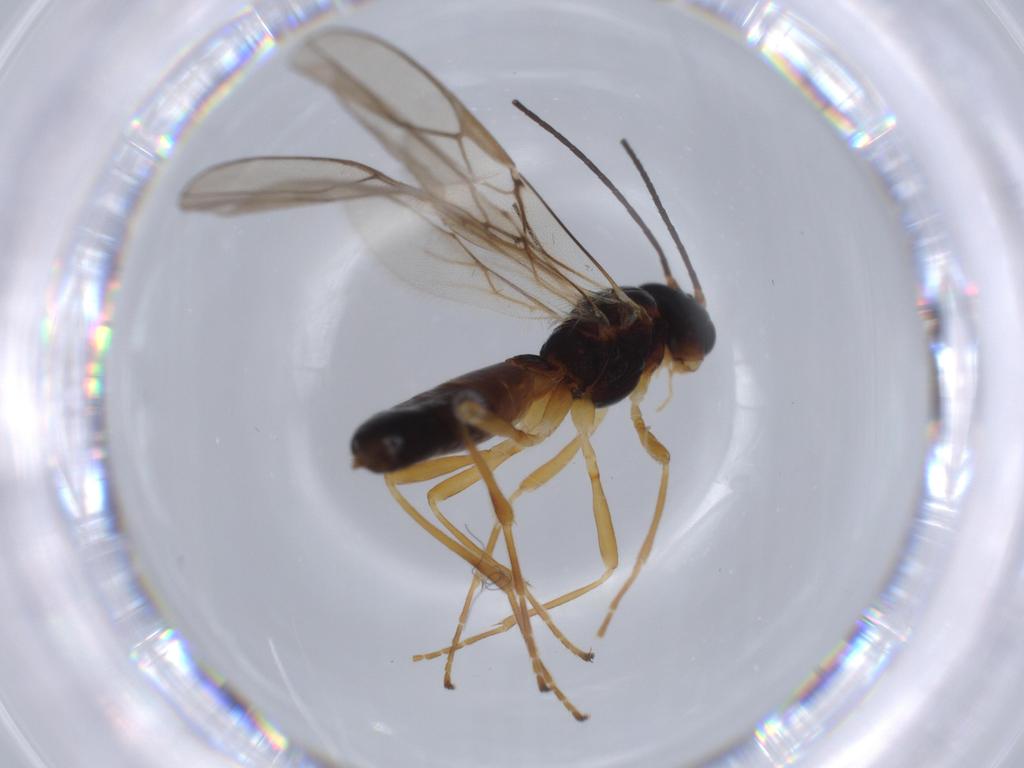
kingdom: Animalia
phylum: Arthropoda
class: Insecta
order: Hymenoptera
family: Braconidae
